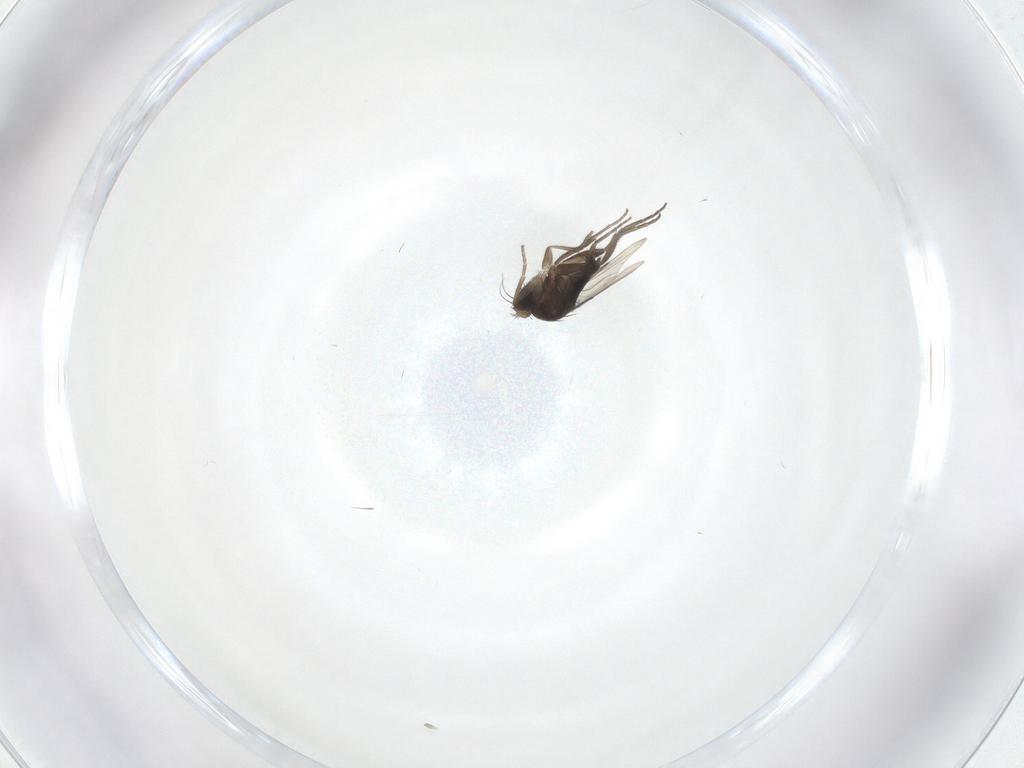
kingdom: Animalia
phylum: Arthropoda
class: Insecta
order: Diptera
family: Phoridae
